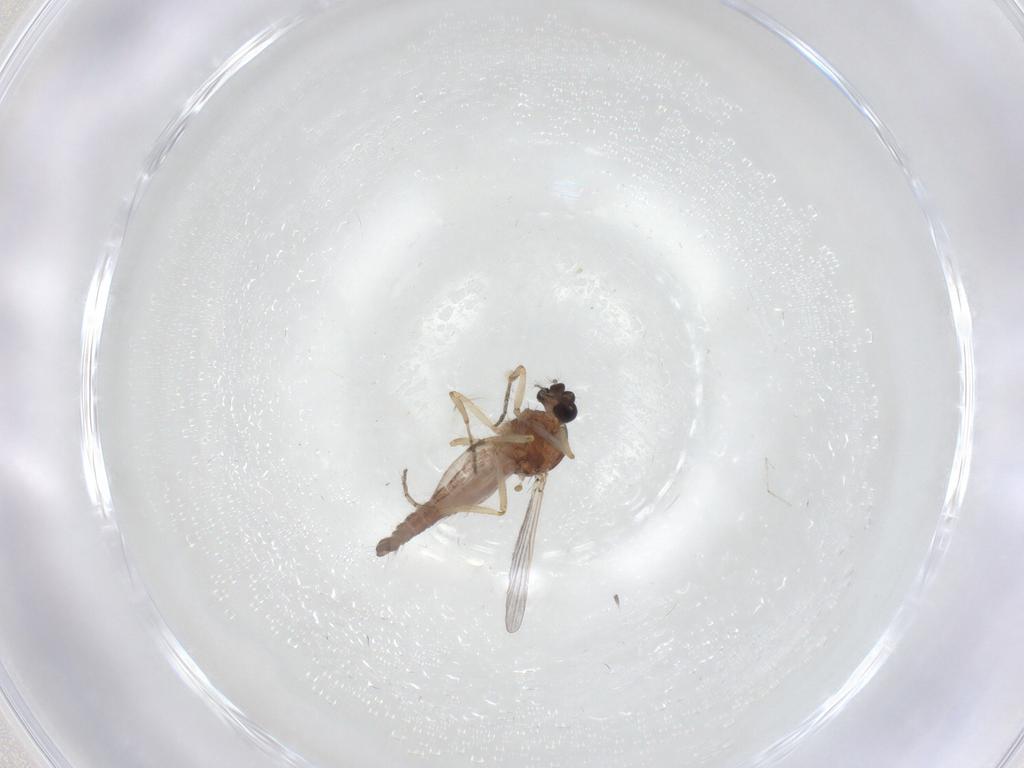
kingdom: Animalia
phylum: Arthropoda
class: Insecta
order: Diptera
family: Ceratopogonidae
